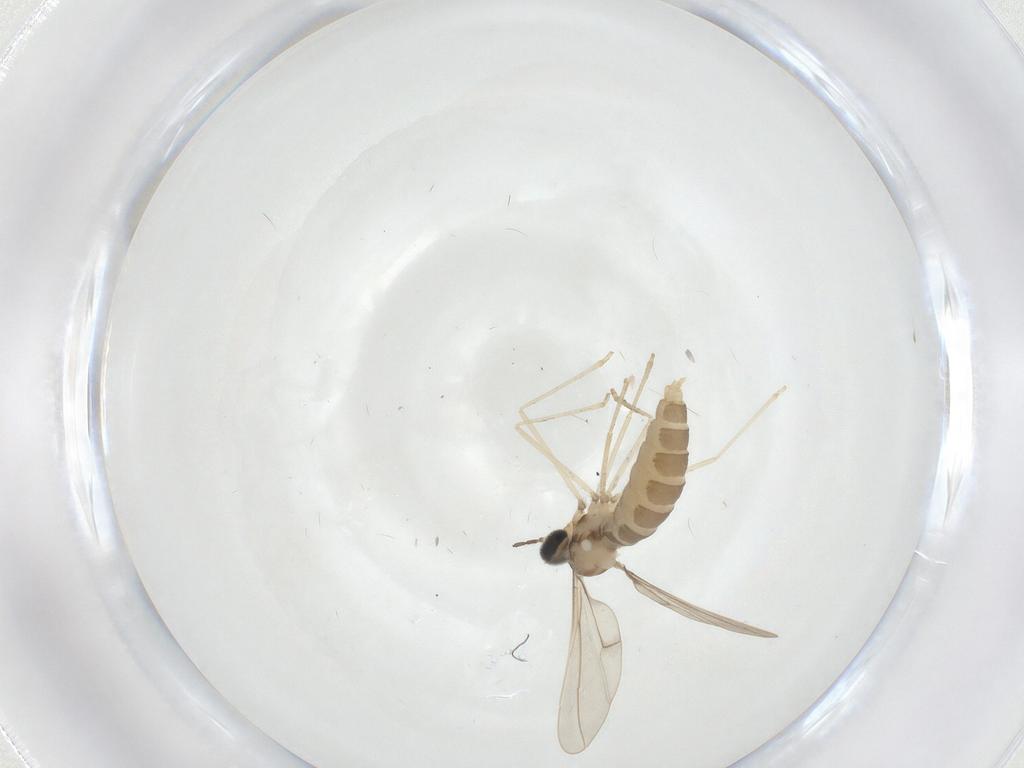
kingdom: Animalia
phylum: Arthropoda
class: Insecta
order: Diptera
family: Cecidomyiidae
